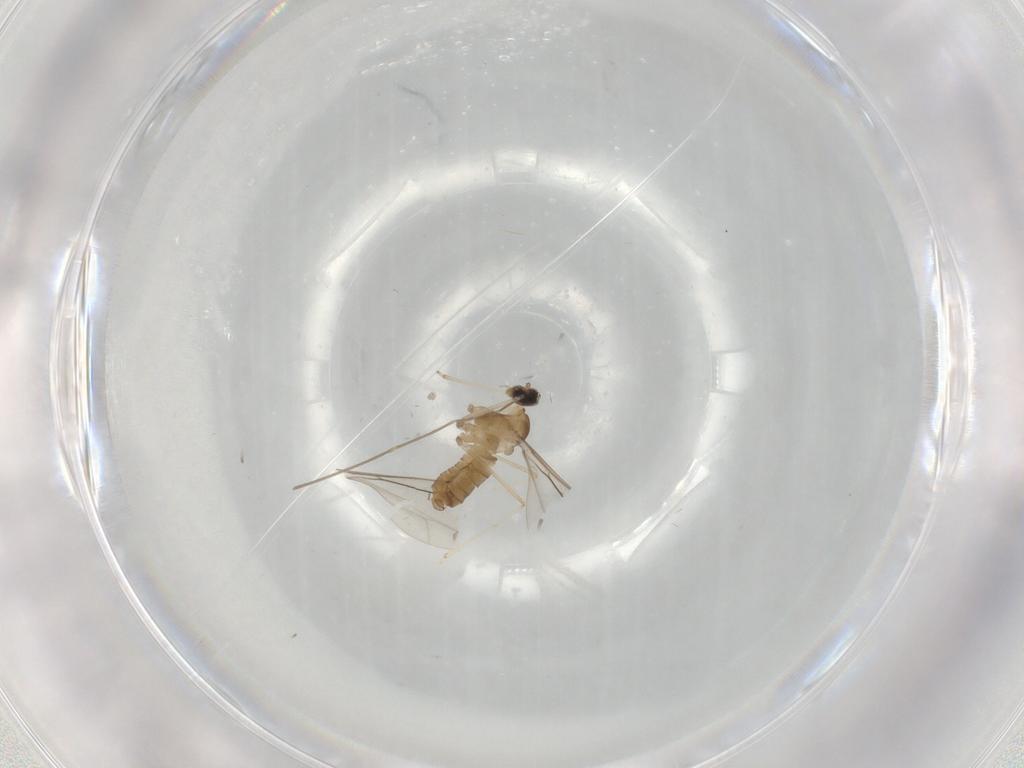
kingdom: Animalia
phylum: Arthropoda
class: Insecta
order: Diptera
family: Cecidomyiidae
